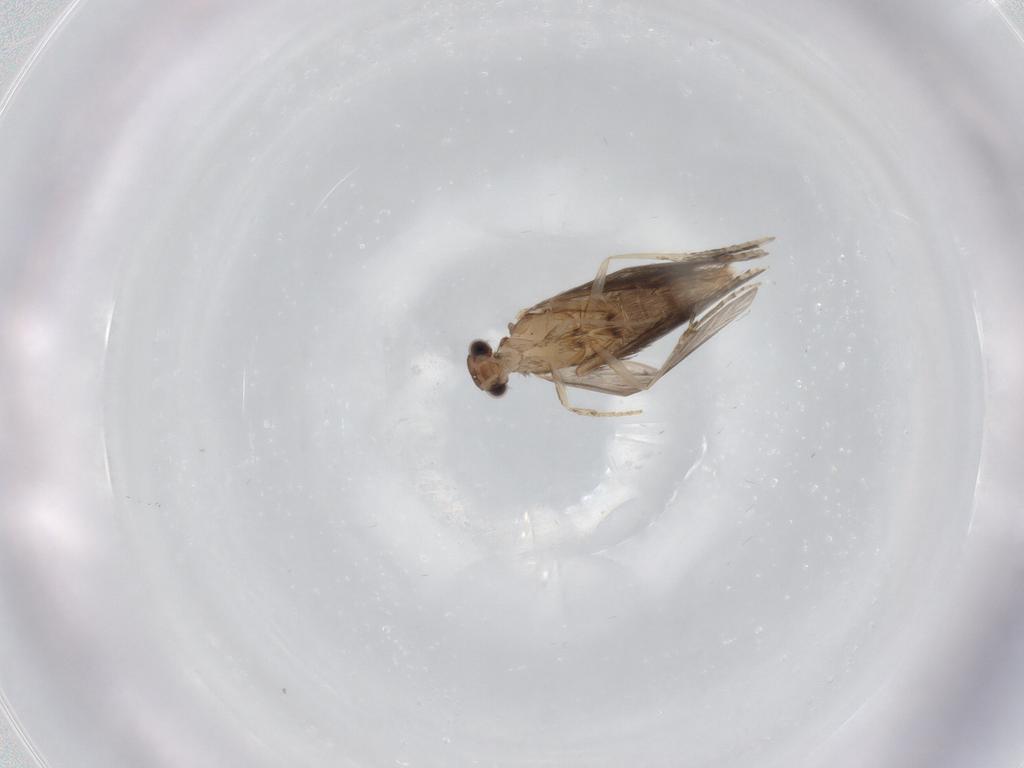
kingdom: Animalia
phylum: Arthropoda
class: Insecta
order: Trichoptera
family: Hydroptilidae
